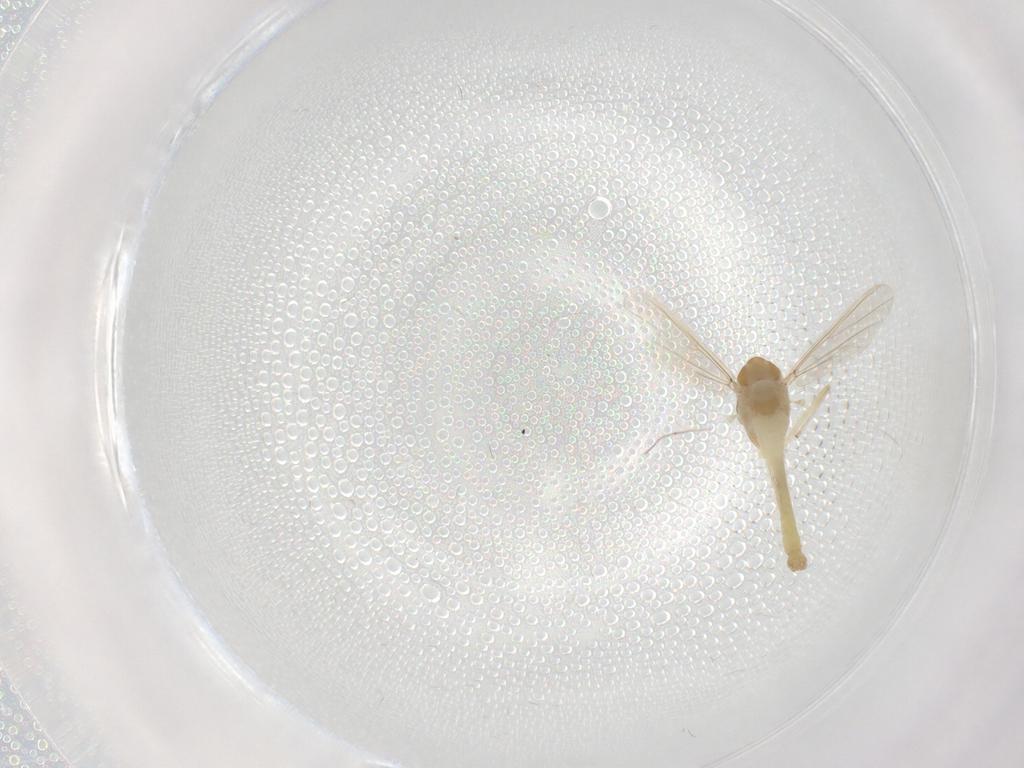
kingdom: Animalia
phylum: Arthropoda
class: Insecta
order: Diptera
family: Chironomidae
